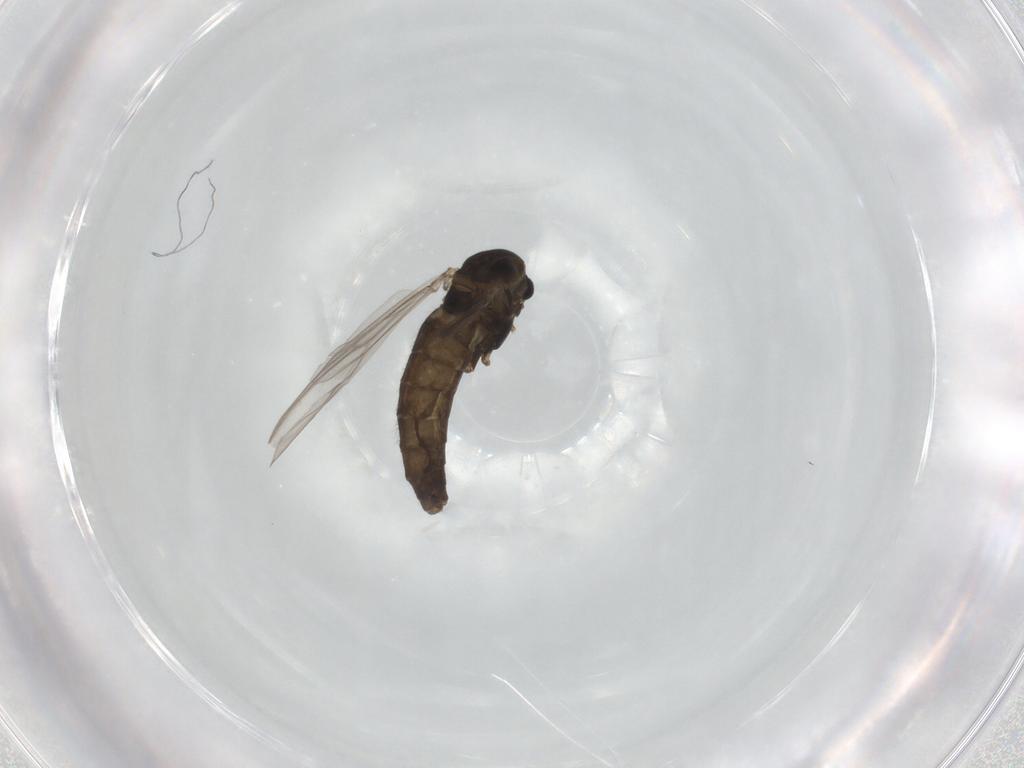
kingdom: Animalia
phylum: Arthropoda
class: Insecta
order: Diptera
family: Chironomidae
